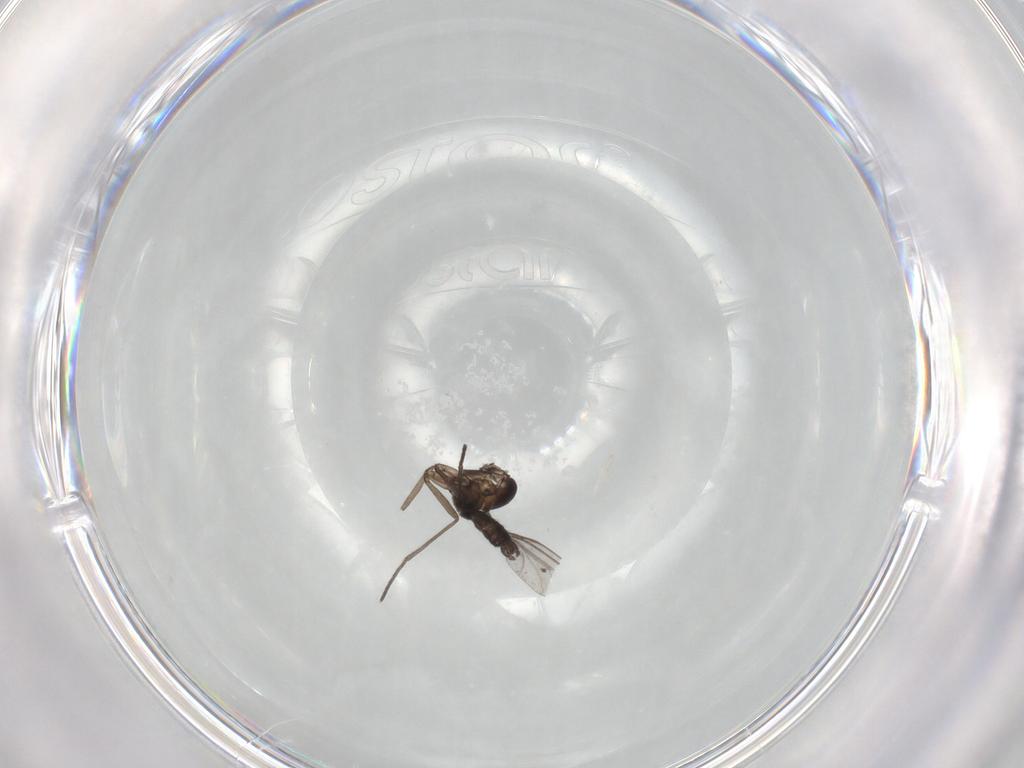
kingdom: Animalia
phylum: Arthropoda
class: Insecta
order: Diptera
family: Cecidomyiidae
